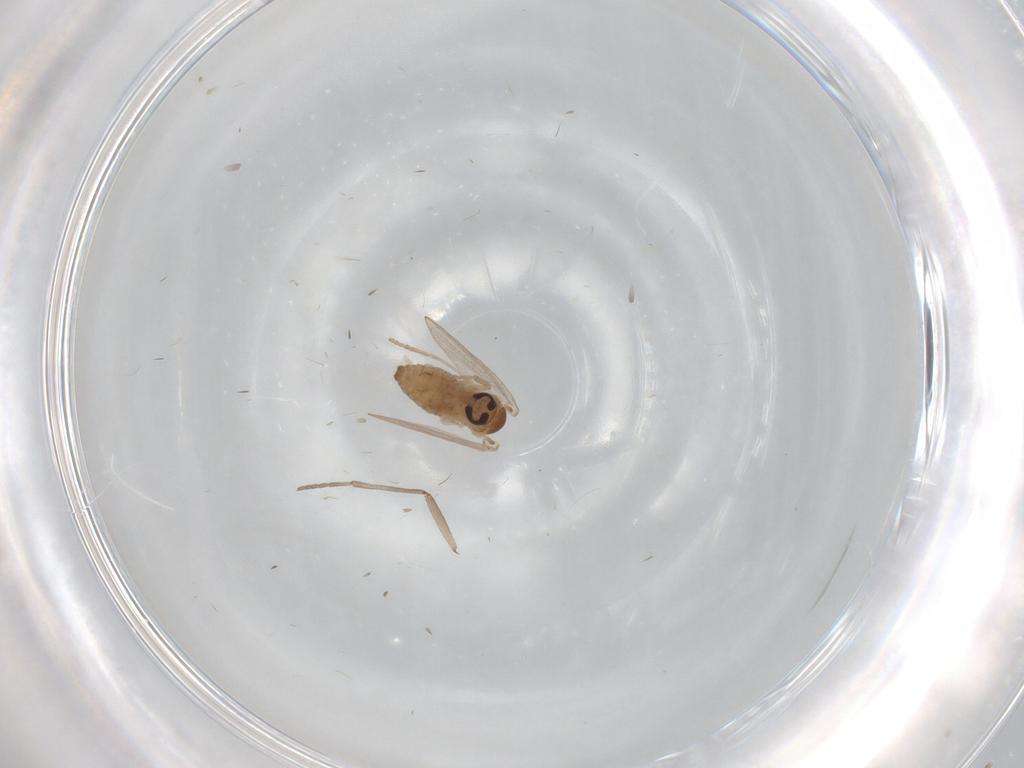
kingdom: Animalia
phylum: Arthropoda
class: Insecta
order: Diptera
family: Psychodidae
